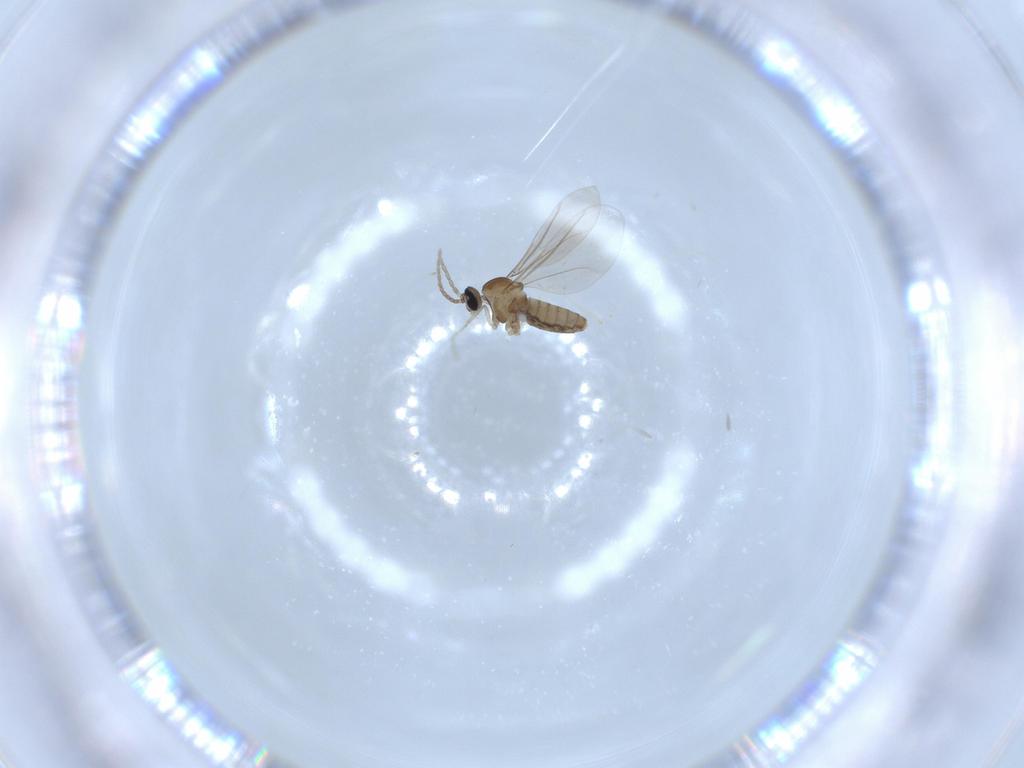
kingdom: Animalia
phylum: Arthropoda
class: Insecta
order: Diptera
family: Cecidomyiidae
